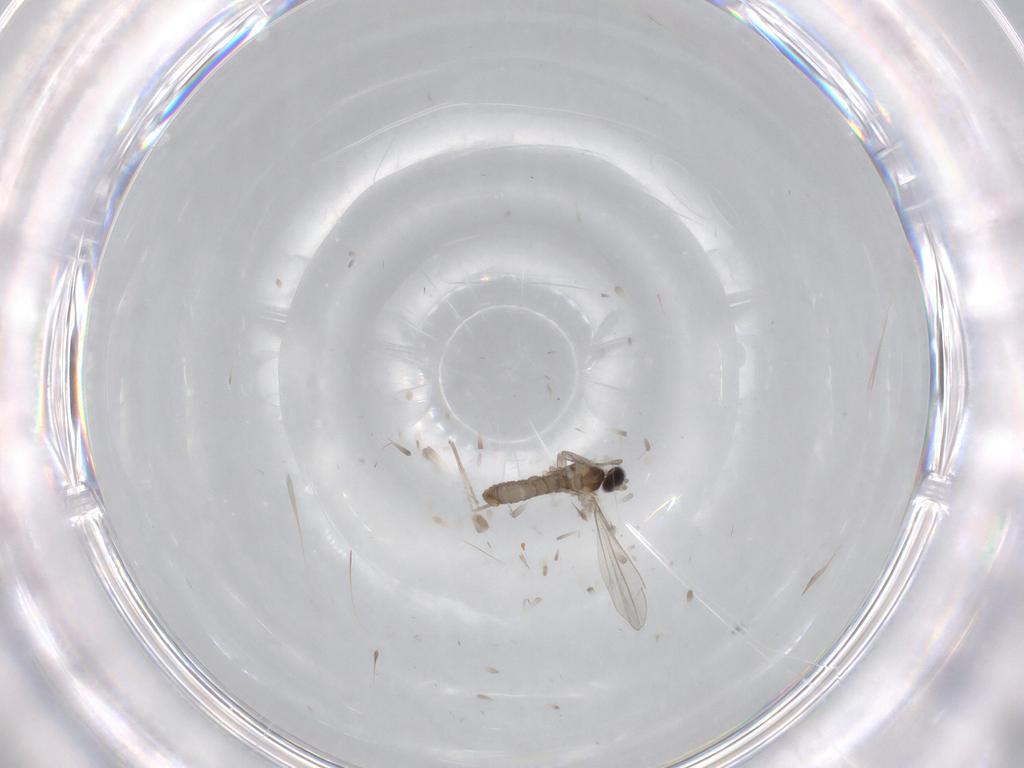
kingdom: Animalia
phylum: Arthropoda
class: Insecta
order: Diptera
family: Cecidomyiidae
